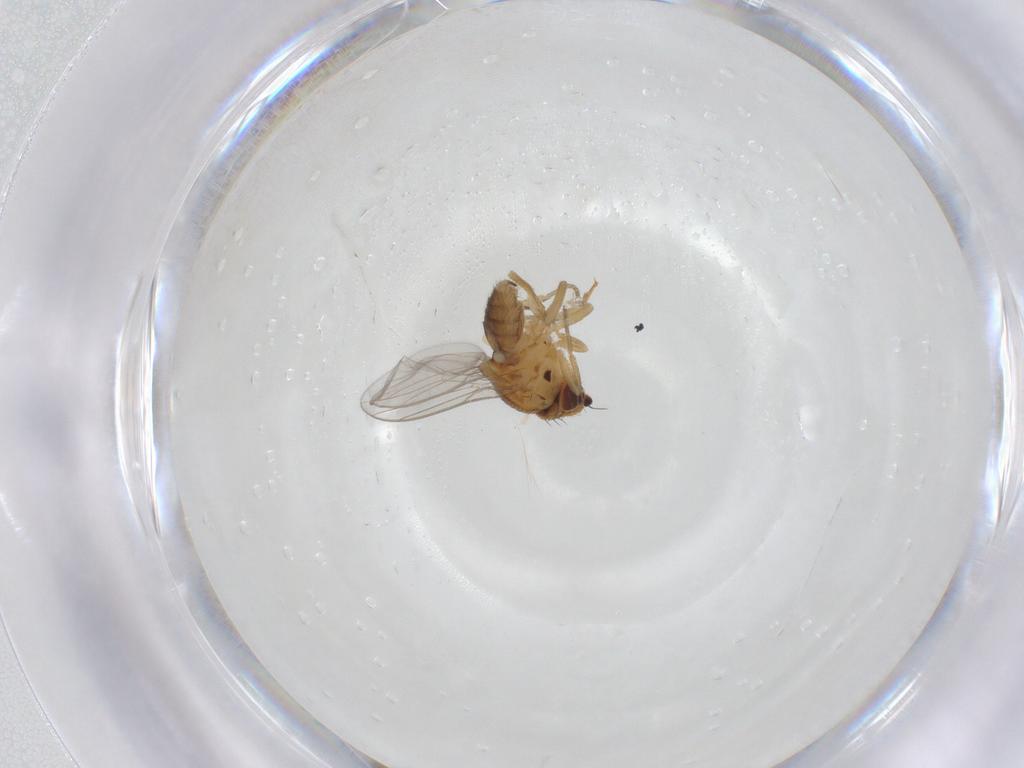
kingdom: Animalia
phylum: Arthropoda
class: Insecta
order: Diptera
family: Chloropidae
